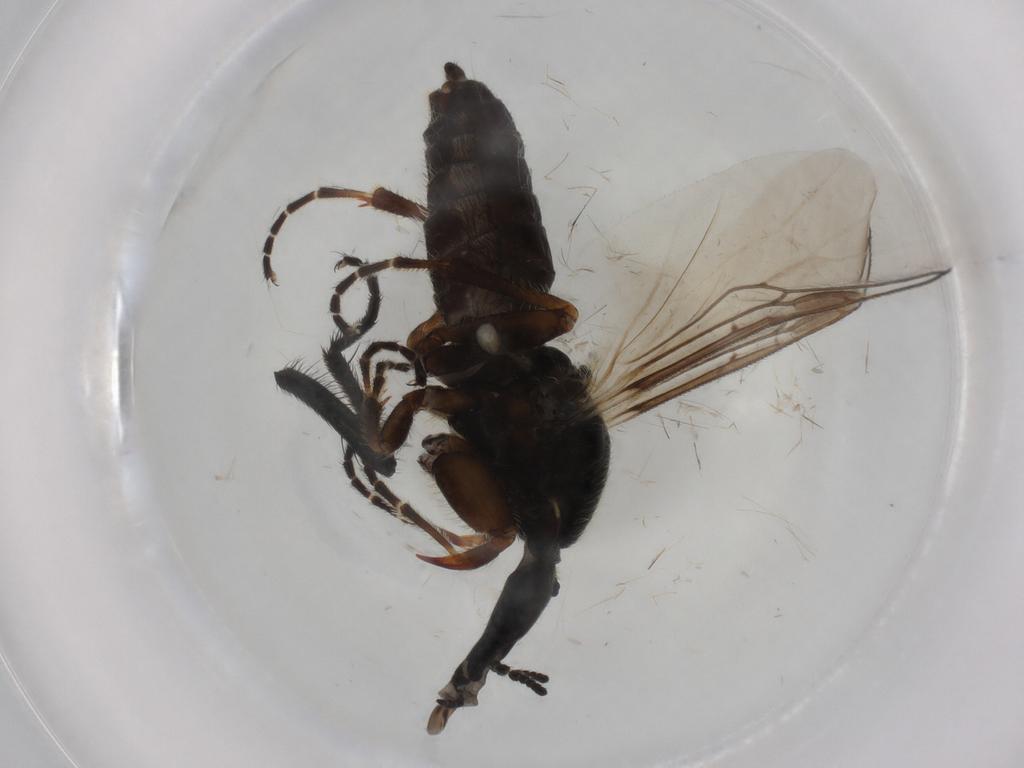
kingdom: Animalia
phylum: Arthropoda
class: Insecta
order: Diptera
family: Bibionidae
